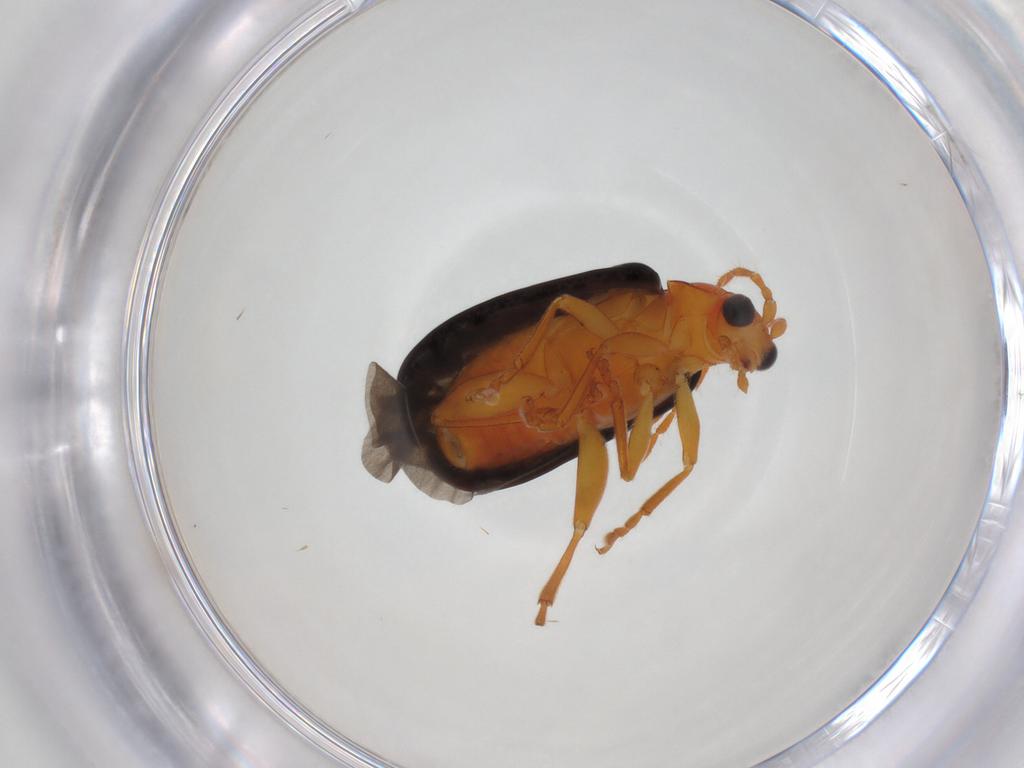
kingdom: Animalia
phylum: Arthropoda
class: Insecta
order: Coleoptera
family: Chrysomelidae
